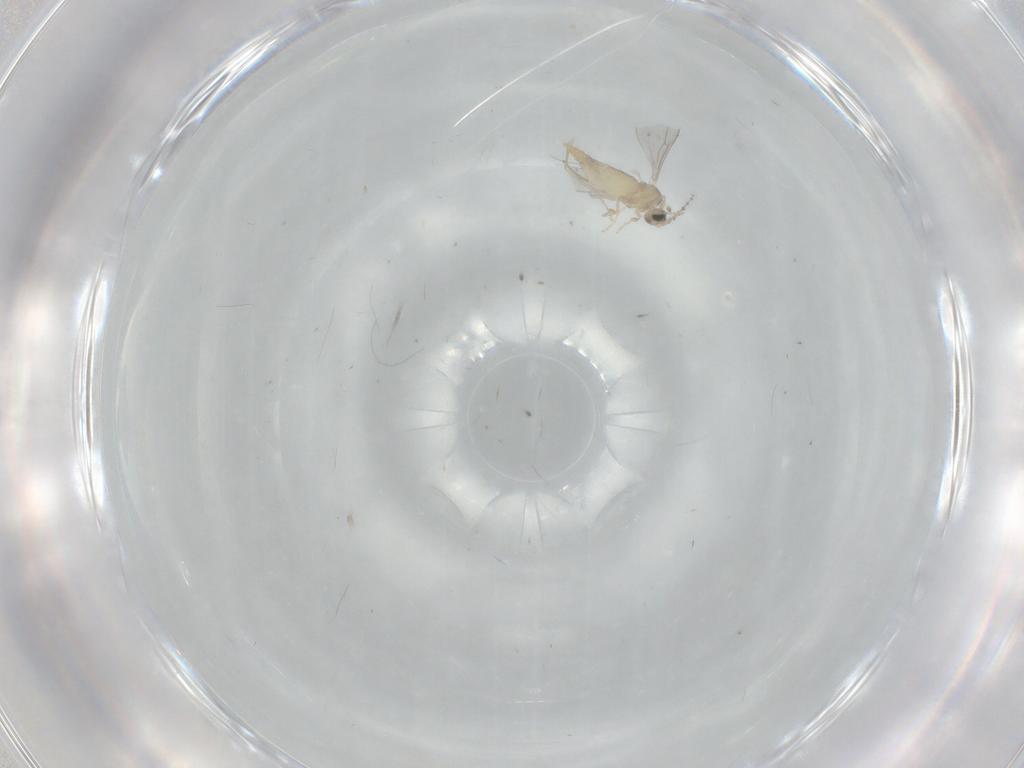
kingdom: Animalia
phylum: Arthropoda
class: Insecta
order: Diptera
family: Cecidomyiidae
